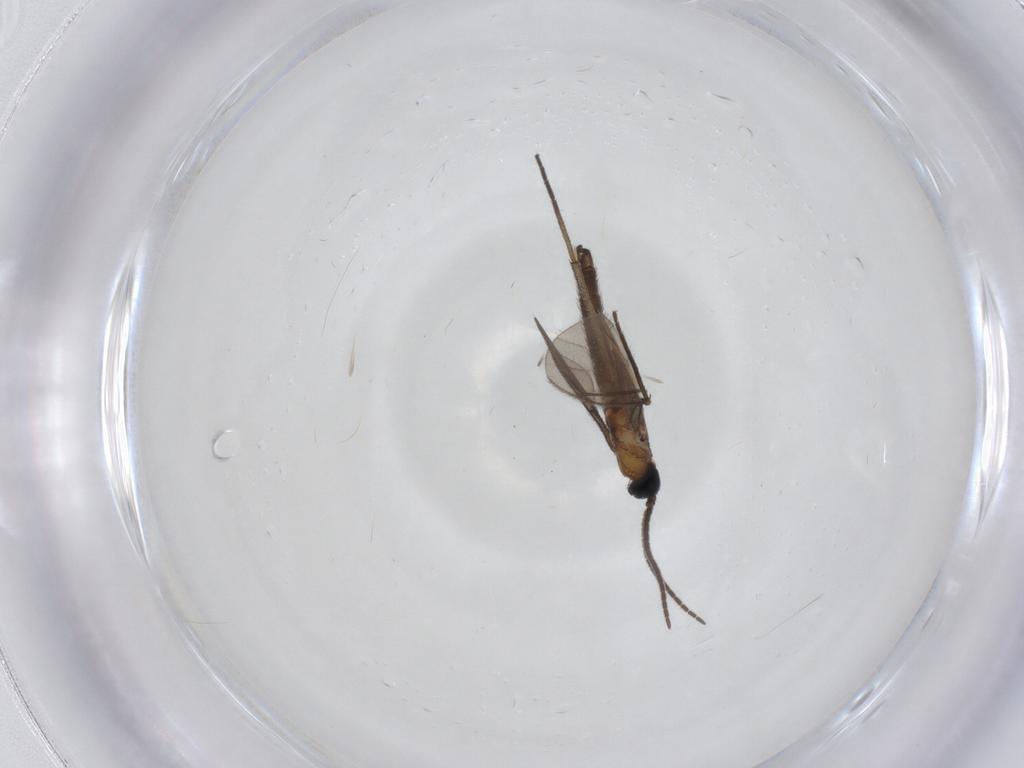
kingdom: Animalia
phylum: Arthropoda
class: Insecta
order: Diptera
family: Limoniidae
